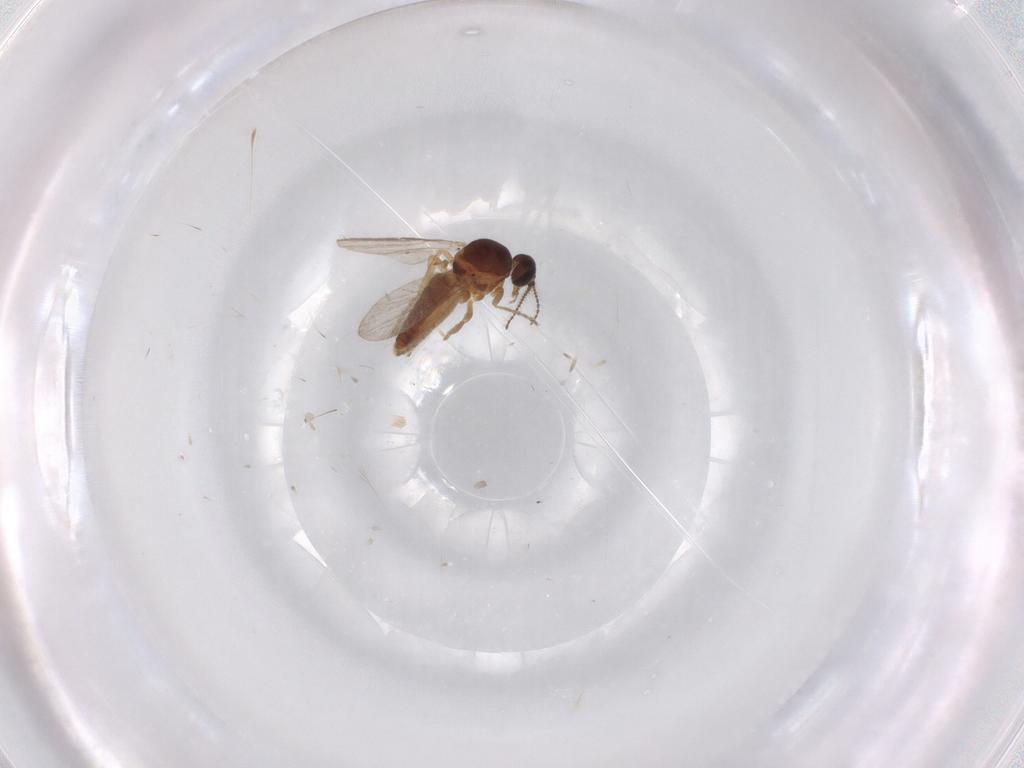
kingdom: Animalia
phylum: Arthropoda
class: Insecta
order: Diptera
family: Ceratopogonidae
